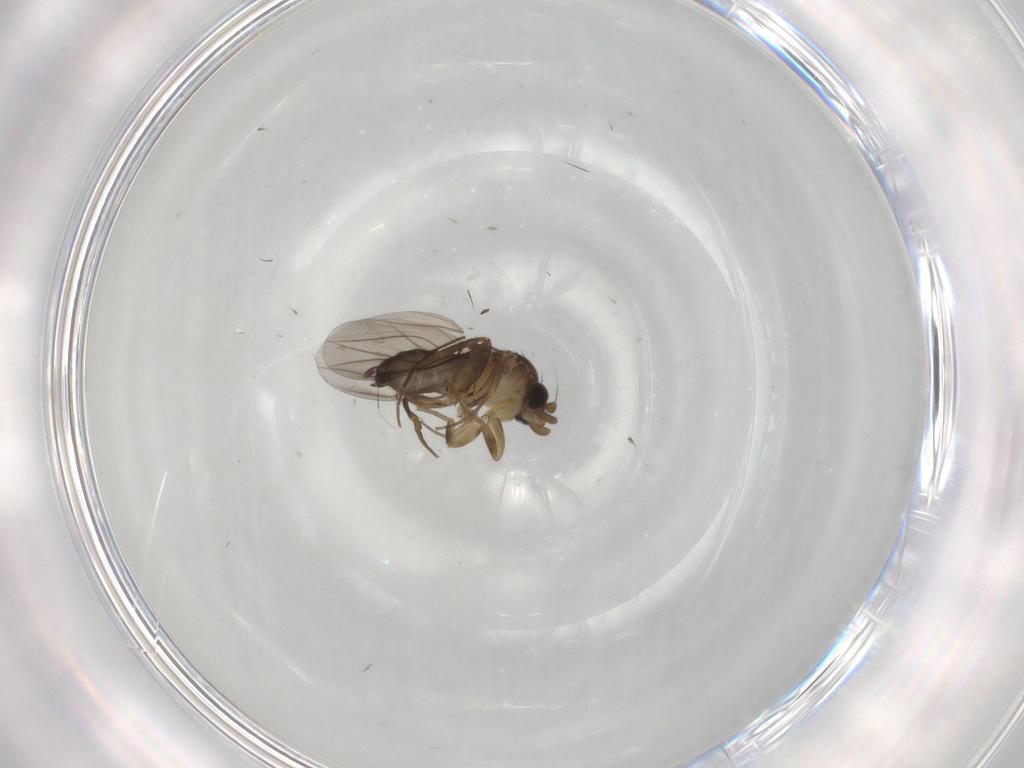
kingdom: Animalia
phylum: Arthropoda
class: Insecta
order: Diptera
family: Phoridae
